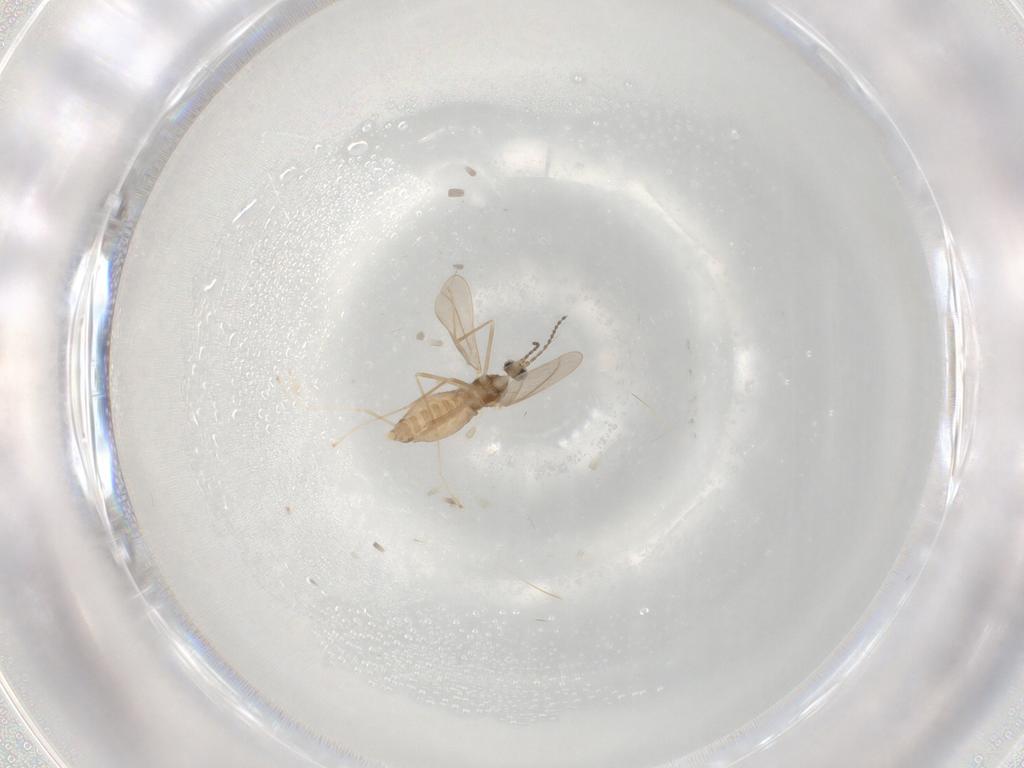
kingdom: Animalia
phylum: Arthropoda
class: Insecta
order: Diptera
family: Cecidomyiidae
